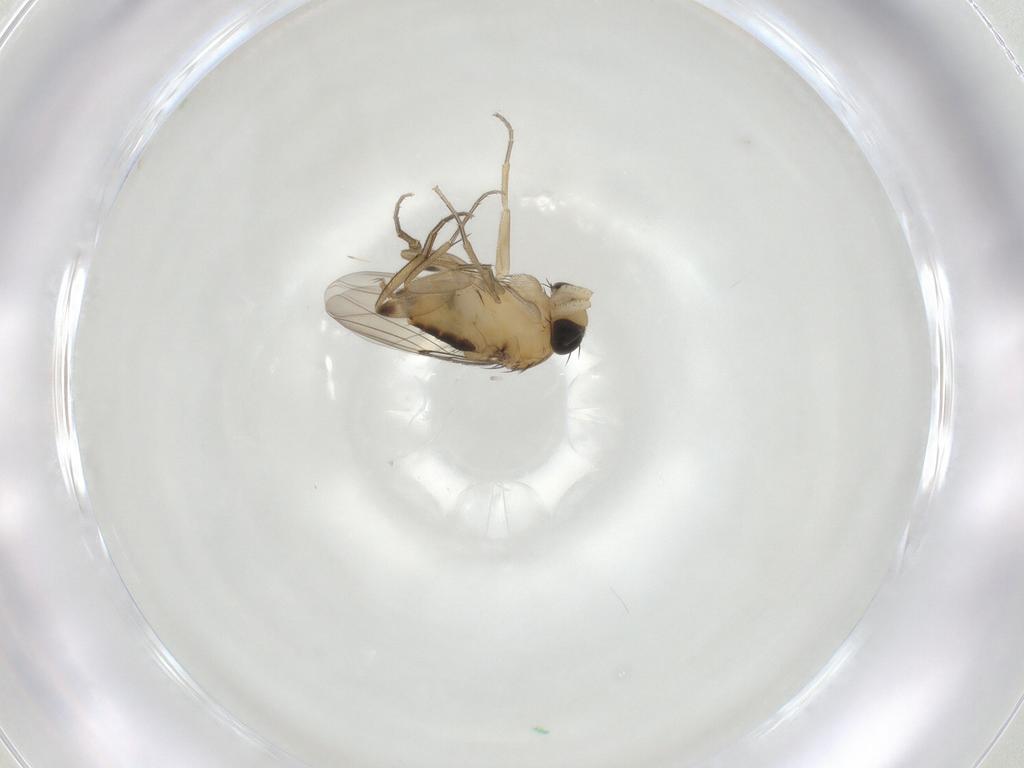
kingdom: Animalia
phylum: Arthropoda
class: Insecta
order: Diptera
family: Phoridae
